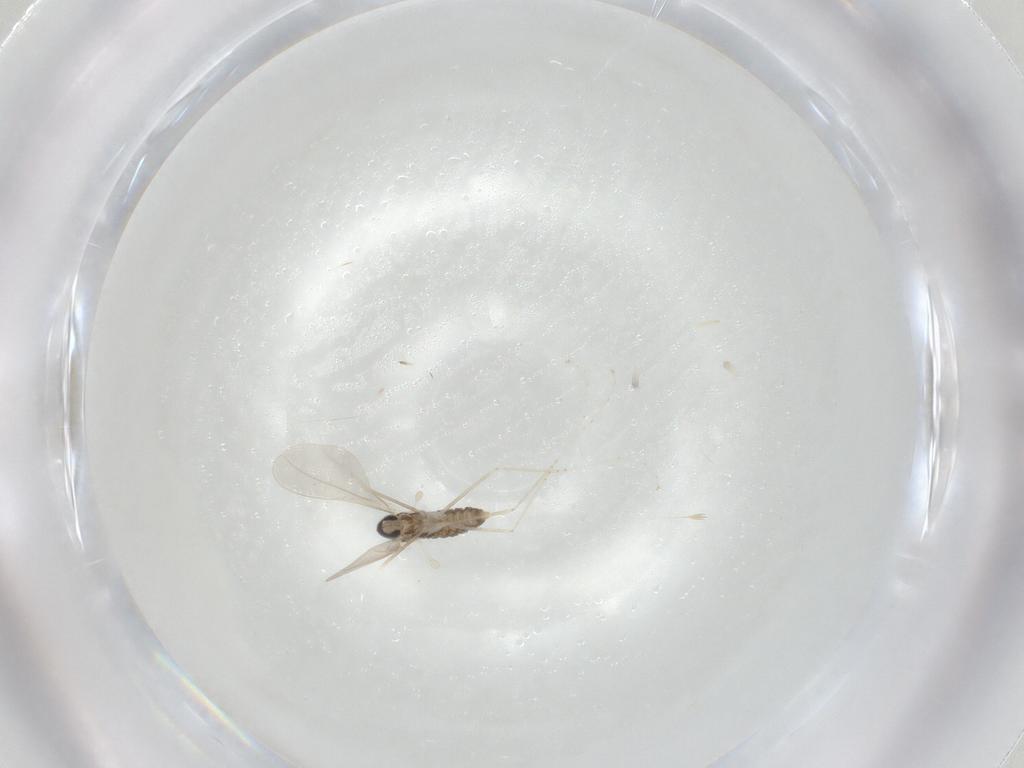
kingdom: Animalia
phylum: Arthropoda
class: Insecta
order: Diptera
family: Cecidomyiidae
